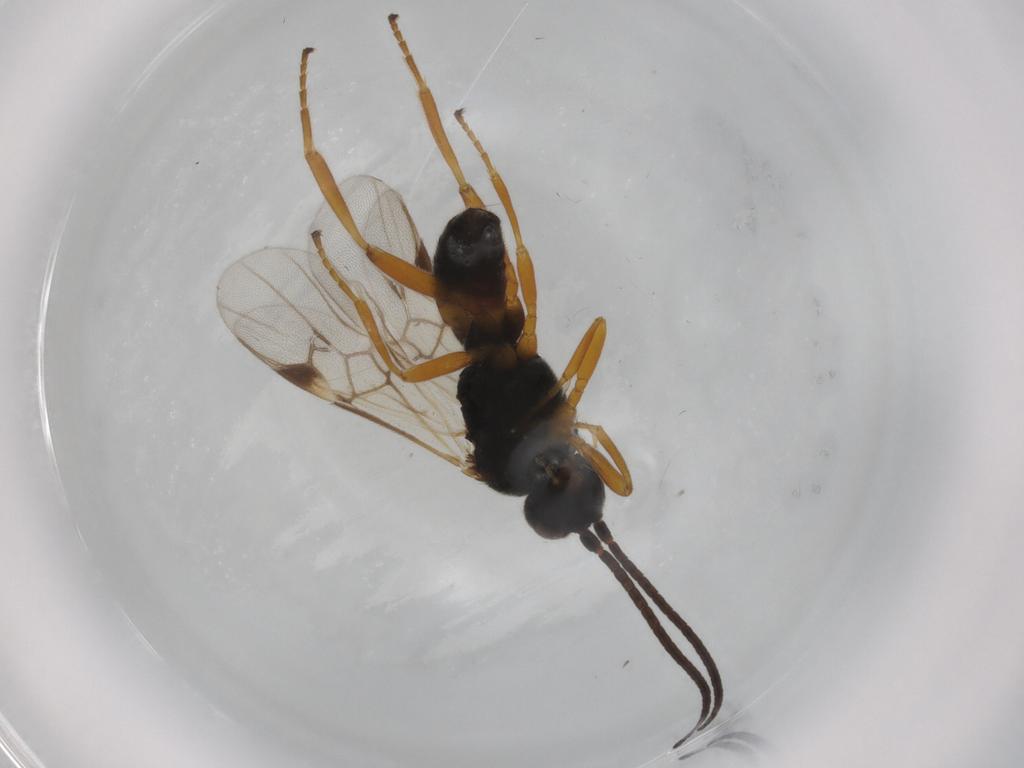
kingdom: Animalia
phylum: Arthropoda
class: Insecta
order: Hymenoptera
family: Braconidae
